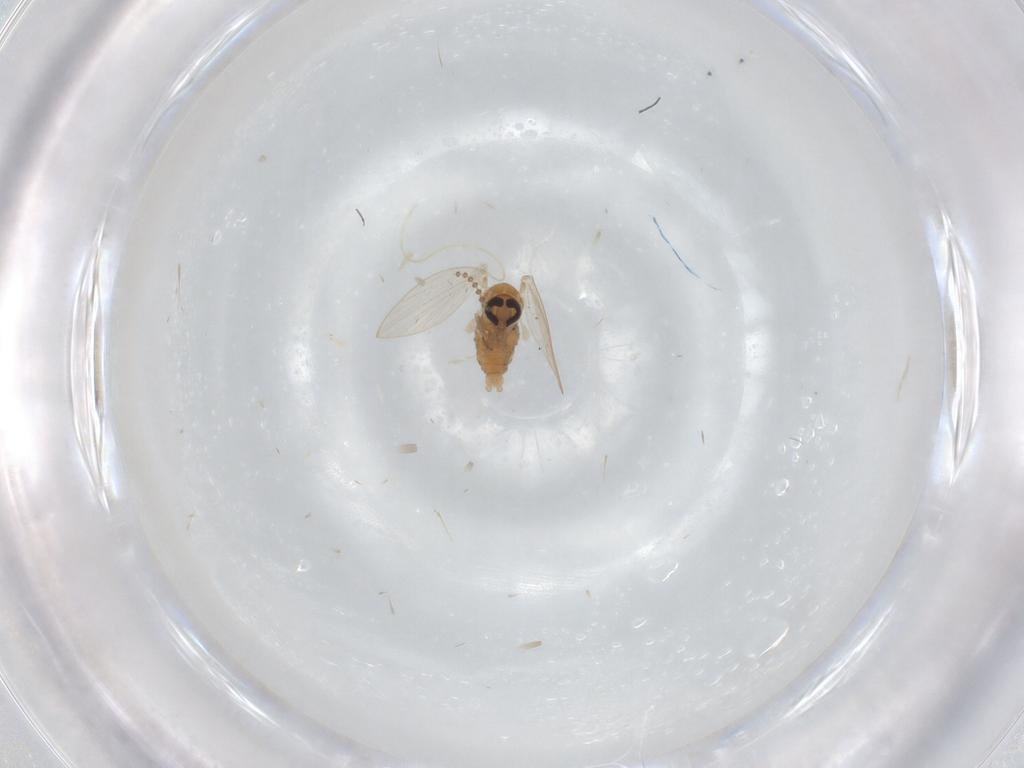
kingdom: Animalia
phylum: Arthropoda
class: Insecta
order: Diptera
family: Psychodidae
